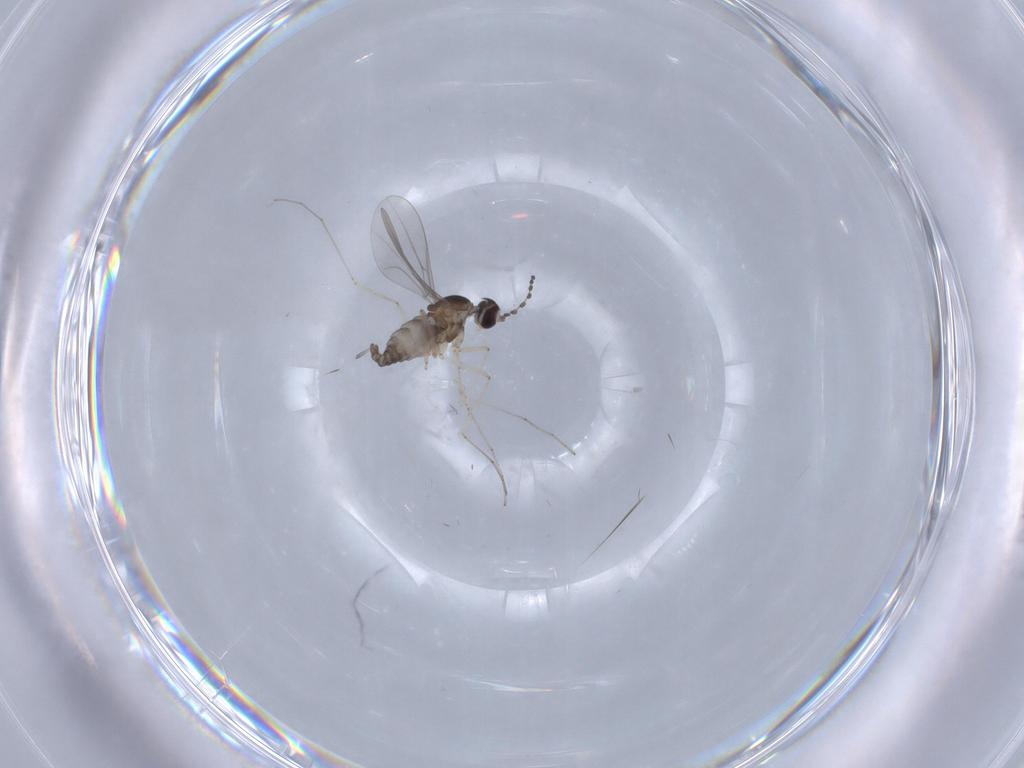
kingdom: Animalia
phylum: Arthropoda
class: Insecta
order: Diptera
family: Cecidomyiidae
